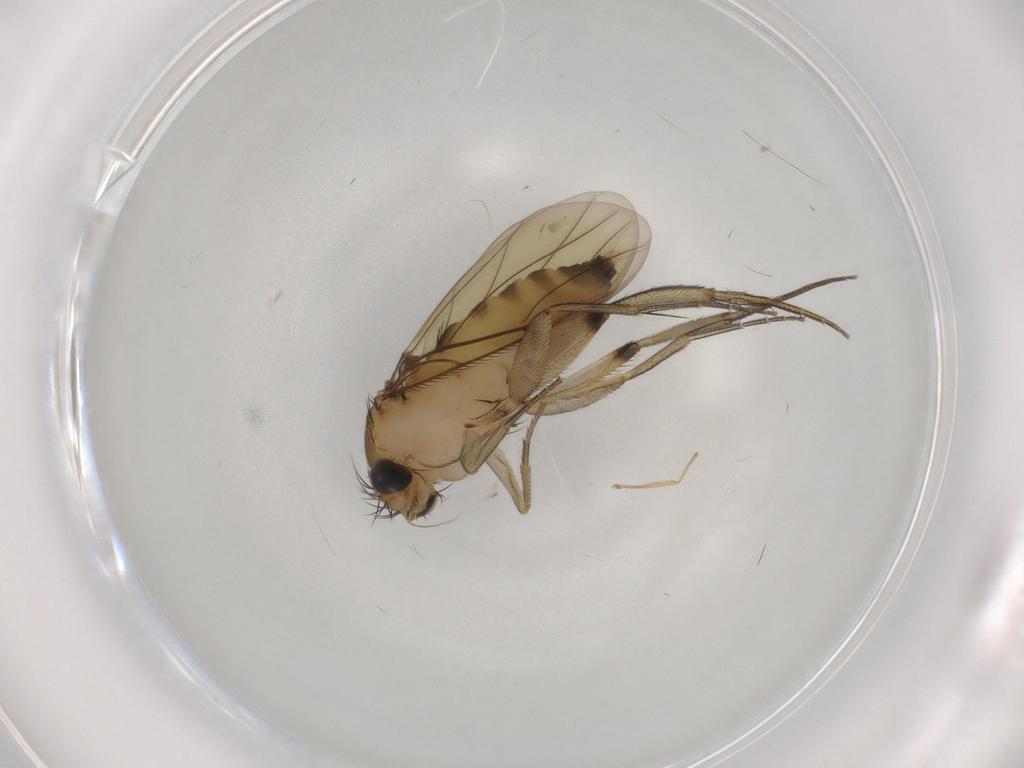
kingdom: Animalia
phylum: Arthropoda
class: Insecta
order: Diptera
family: Phoridae
